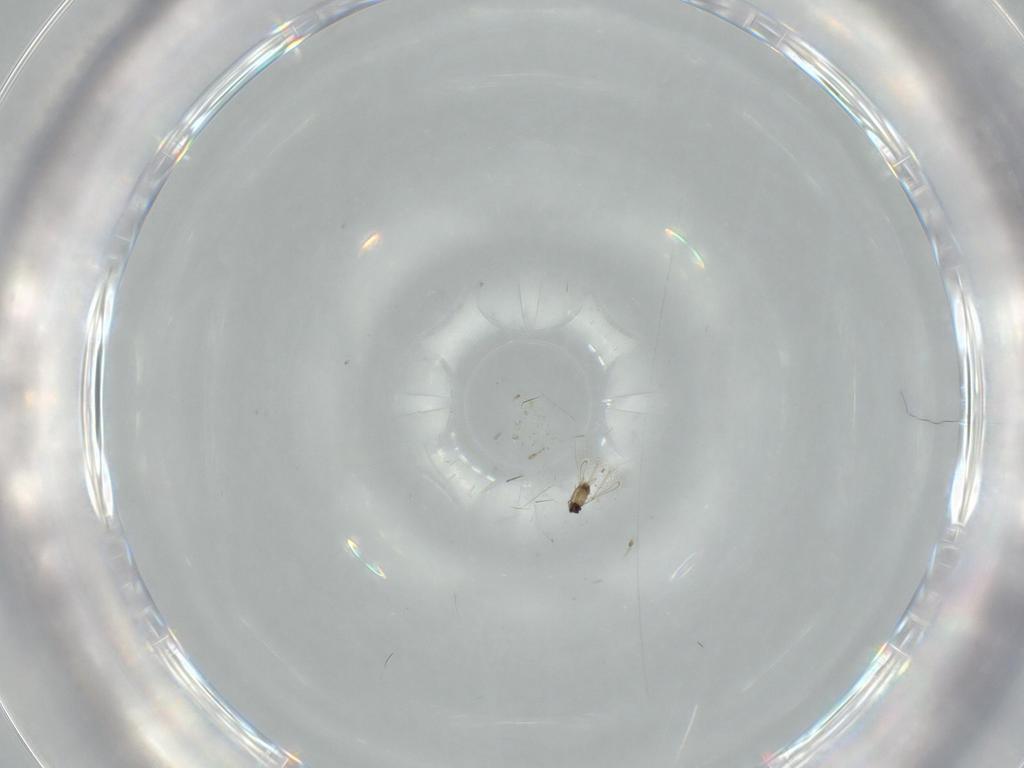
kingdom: Animalia
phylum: Arthropoda
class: Insecta
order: Hymenoptera
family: Mymaridae
